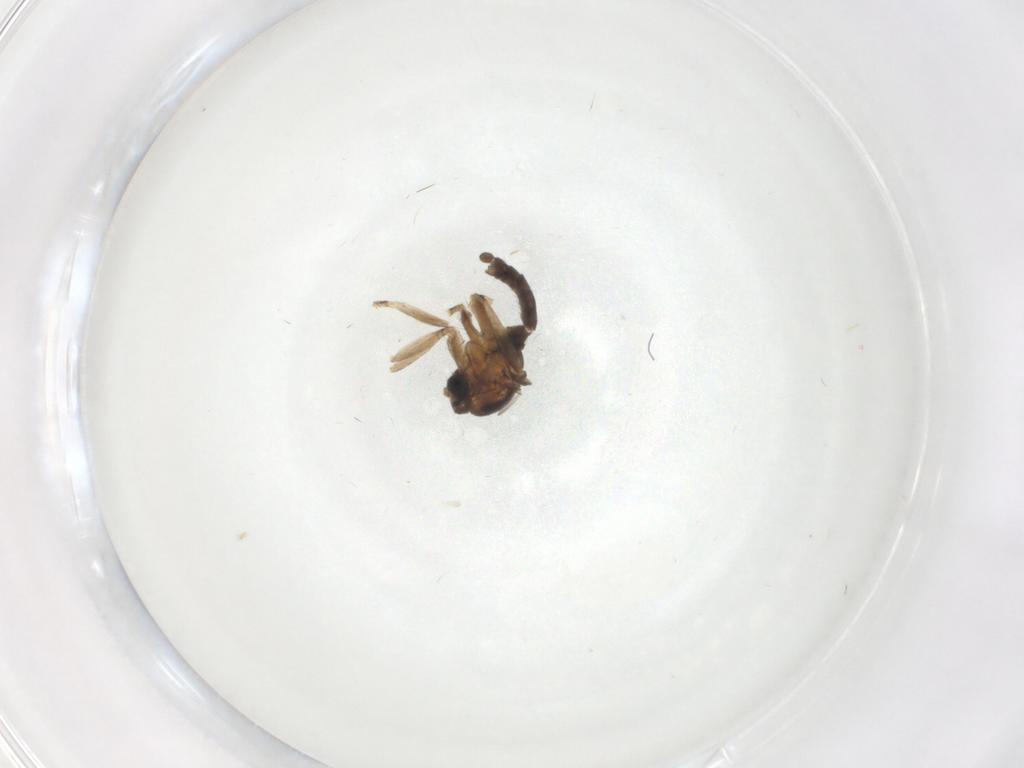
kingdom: Animalia
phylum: Arthropoda
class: Insecta
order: Diptera
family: Sciaridae
